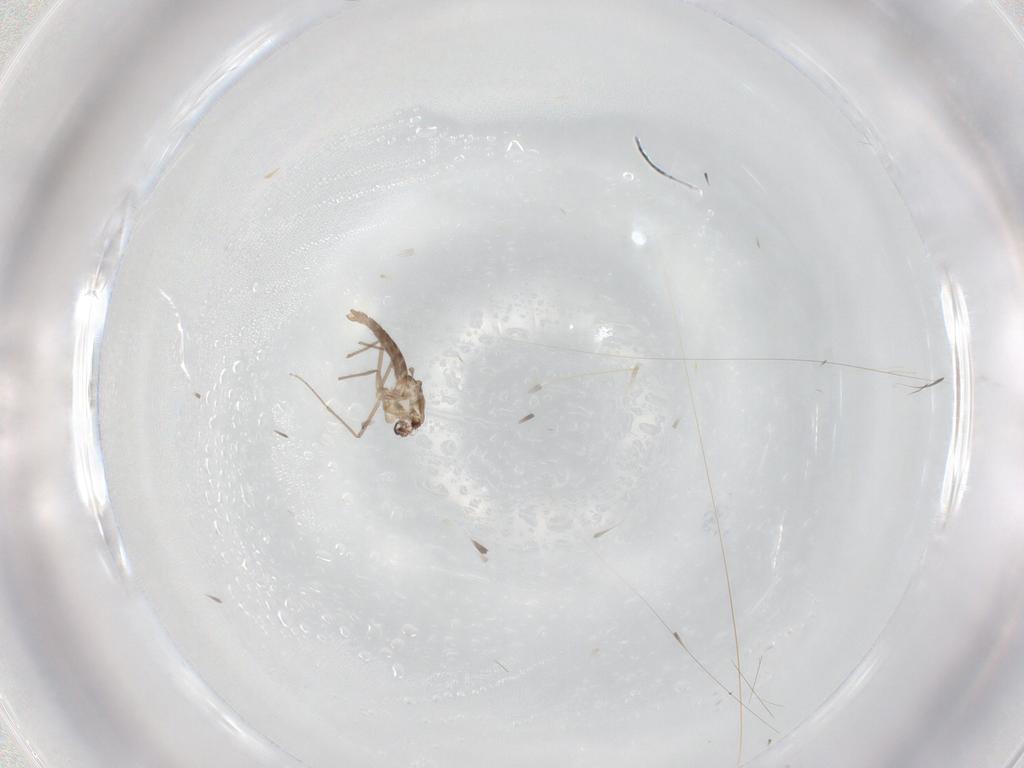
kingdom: Animalia
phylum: Arthropoda
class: Insecta
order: Diptera
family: Chironomidae
